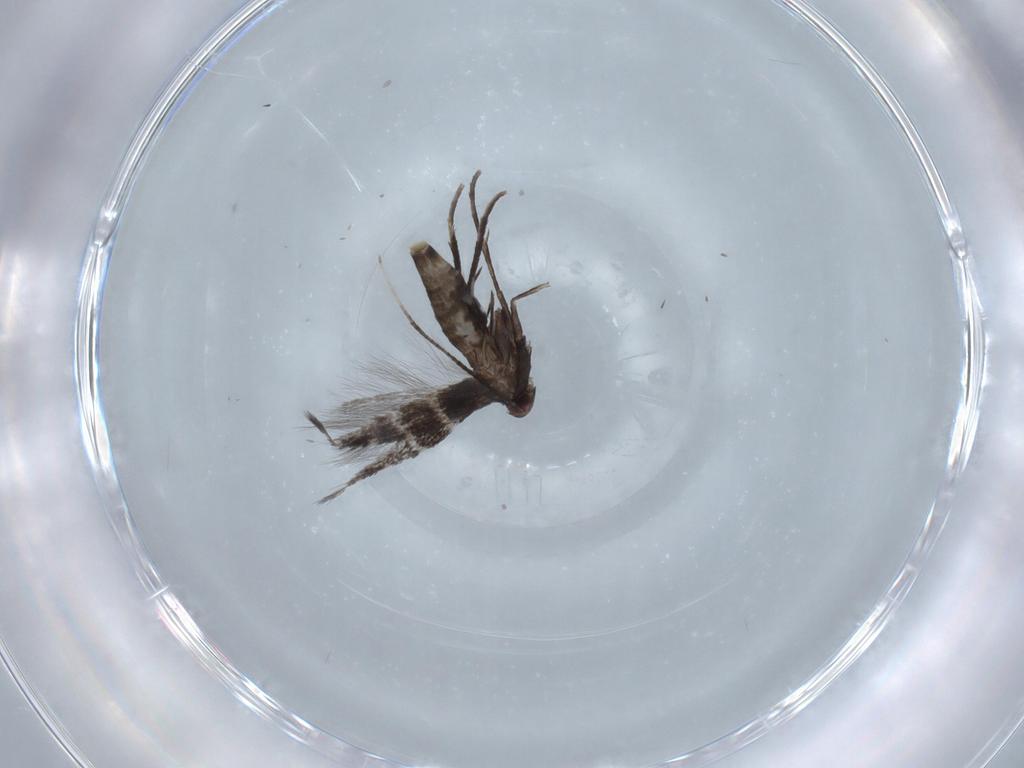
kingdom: Animalia
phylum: Arthropoda
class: Insecta
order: Lepidoptera
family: Gracillariidae
